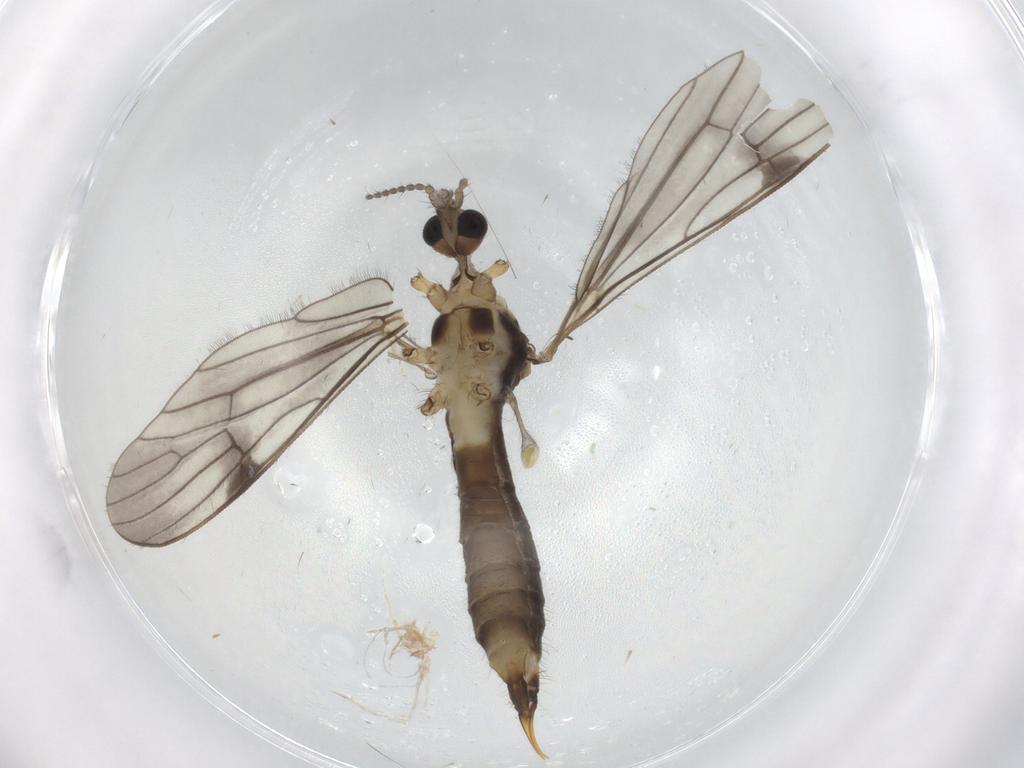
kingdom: Animalia
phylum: Arthropoda
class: Insecta
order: Diptera
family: Limoniidae
